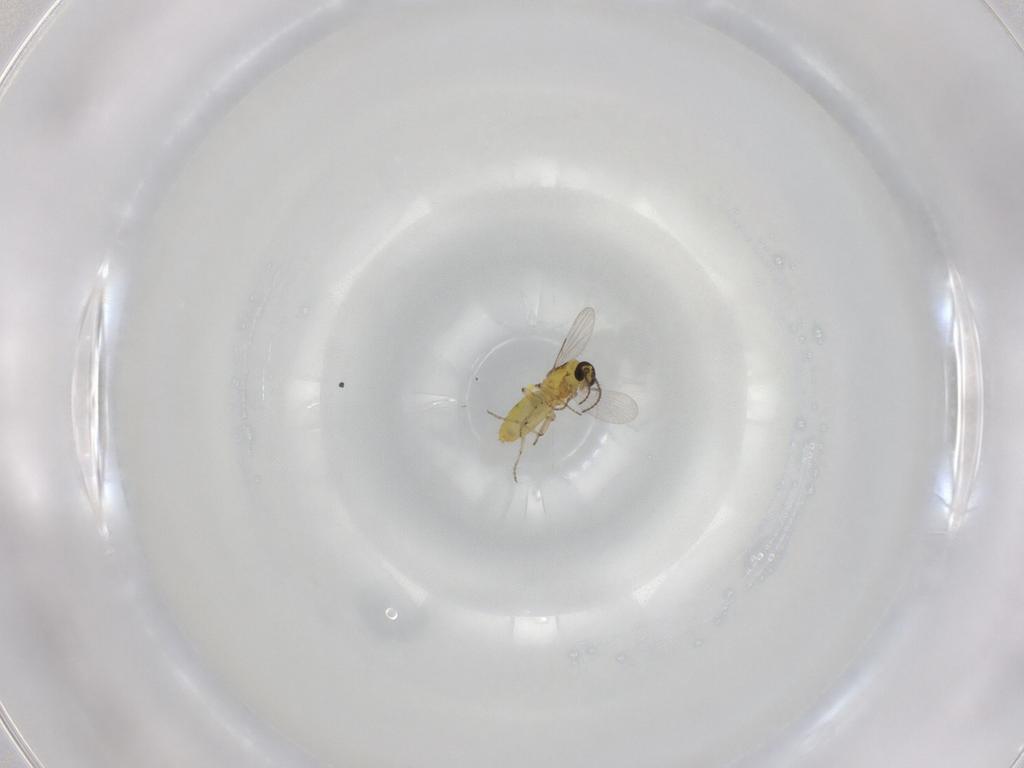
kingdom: Animalia
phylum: Arthropoda
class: Insecta
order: Diptera
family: Ceratopogonidae
